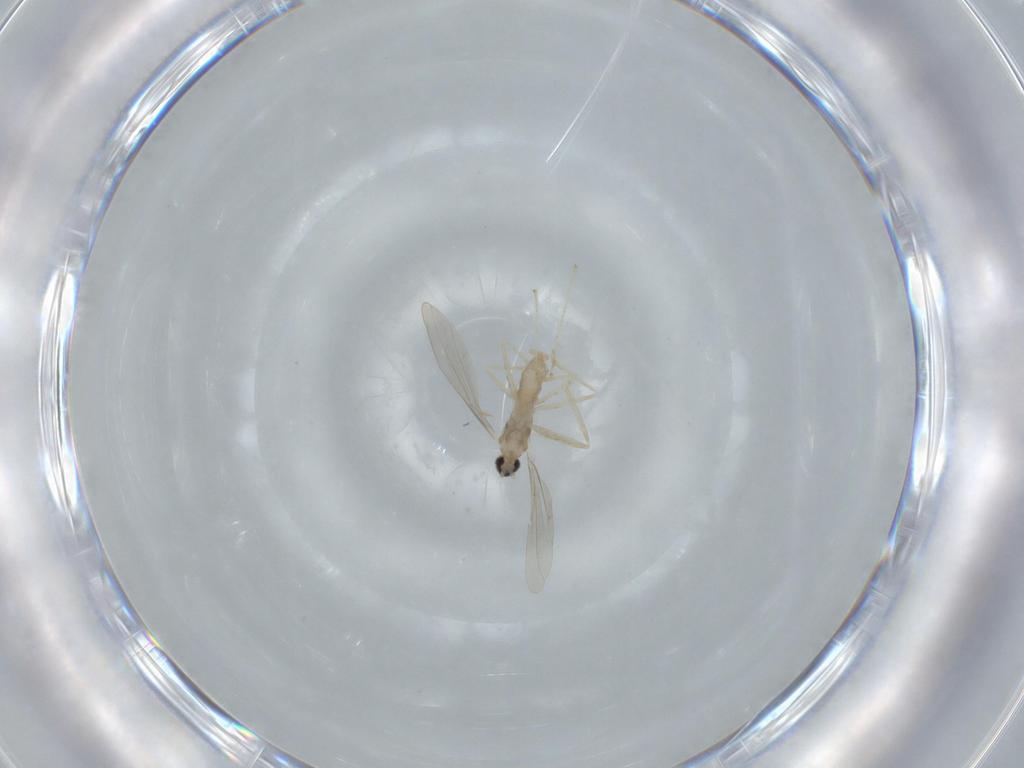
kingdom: Animalia
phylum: Arthropoda
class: Insecta
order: Diptera
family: Cecidomyiidae
